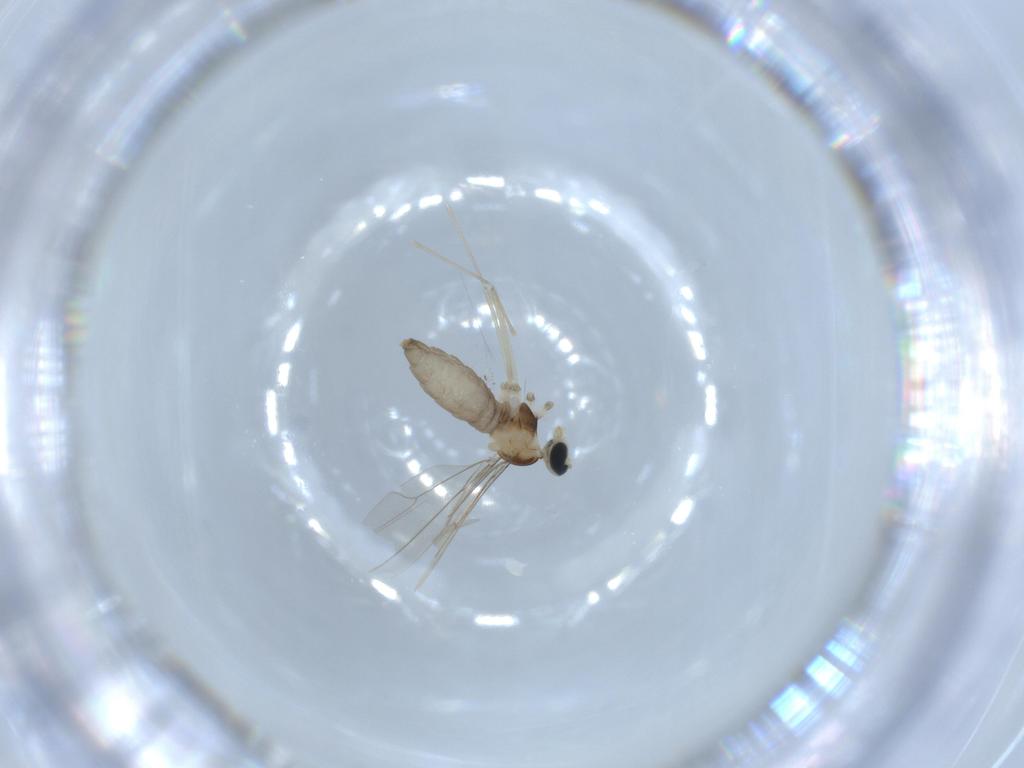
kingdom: Animalia
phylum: Arthropoda
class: Insecta
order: Diptera
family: Cecidomyiidae
